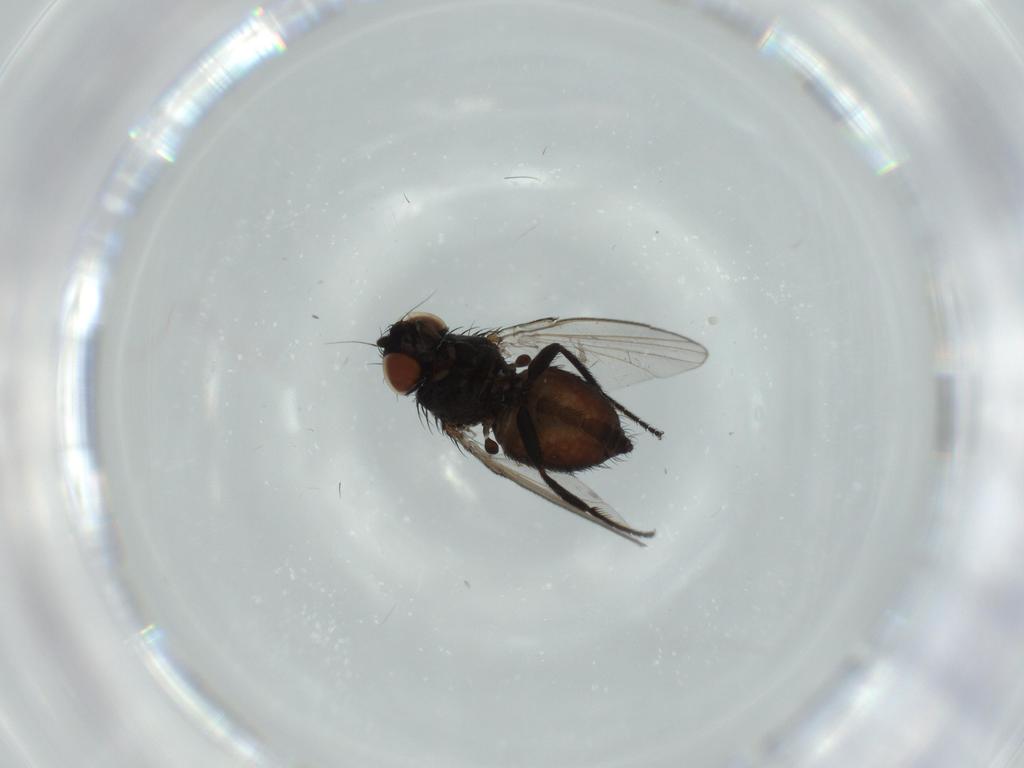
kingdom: Animalia
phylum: Arthropoda
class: Insecta
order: Diptera
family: Milichiidae
